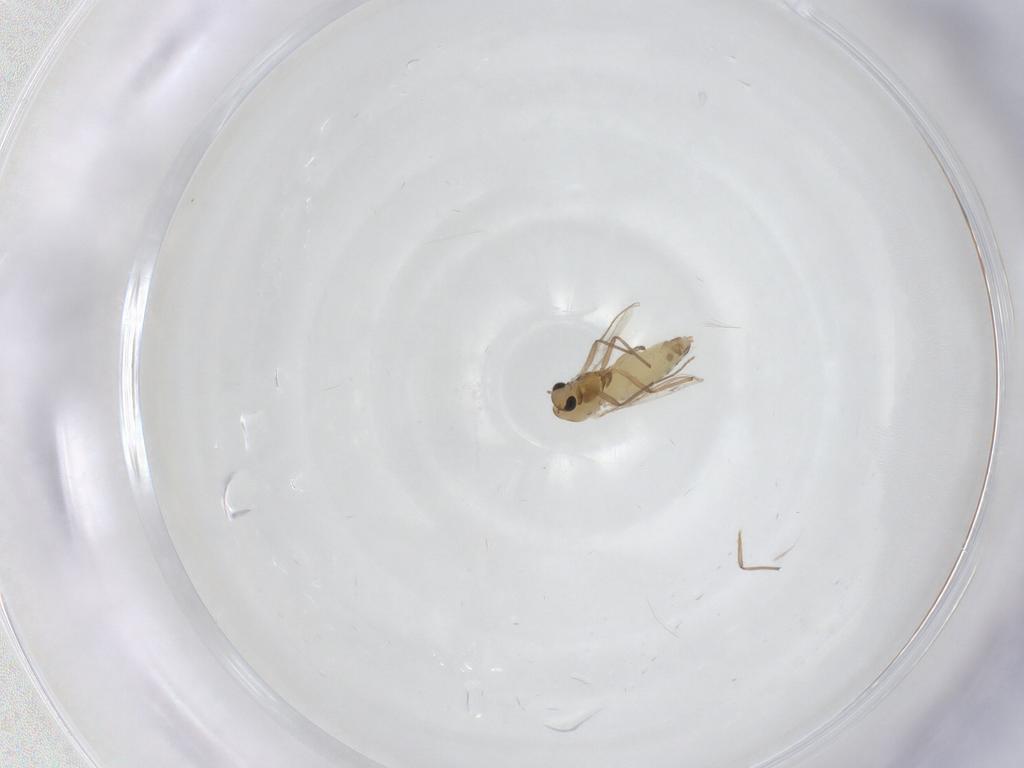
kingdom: Animalia
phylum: Arthropoda
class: Insecta
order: Diptera
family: Chironomidae
